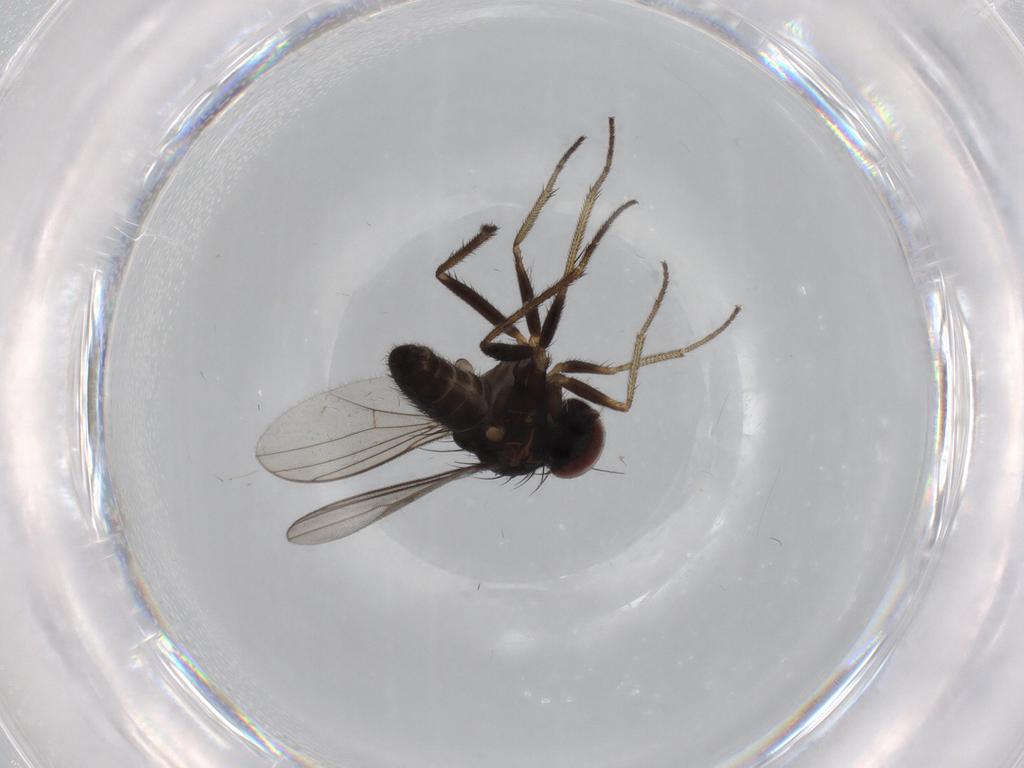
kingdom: Animalia
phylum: Arthropoda
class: Insecta
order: Diptera
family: Cecidomyiidae
